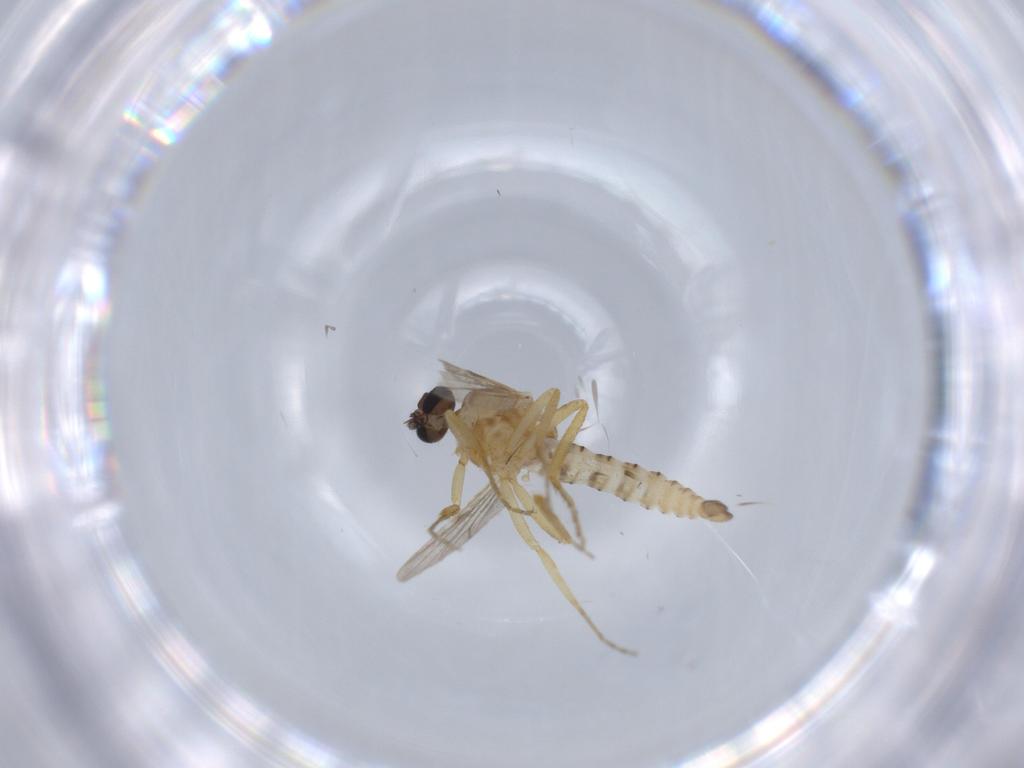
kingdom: Animalia
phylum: Arthropoda
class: Insecta
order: Diptera
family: Ceratopogonidae
